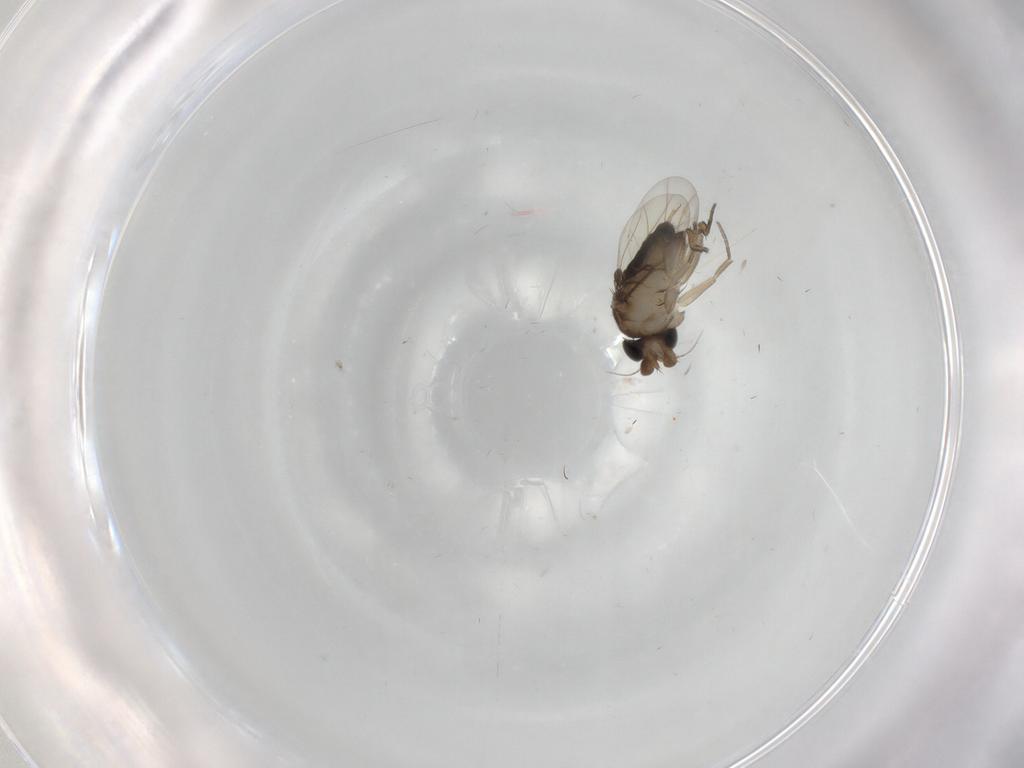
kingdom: Animalia
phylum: Arthropoda
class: Insecta
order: Diptera
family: Phoridae
